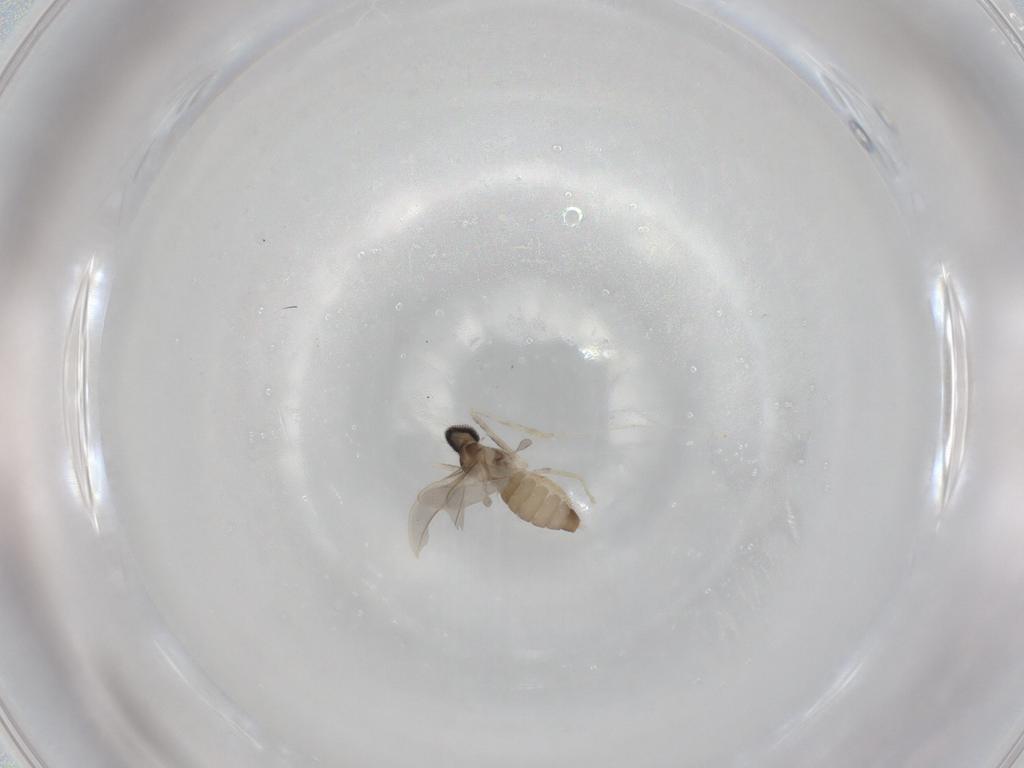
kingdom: Animalia
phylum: Arthropoda
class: Insecta
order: Diptera
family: Cecidomyiidae
